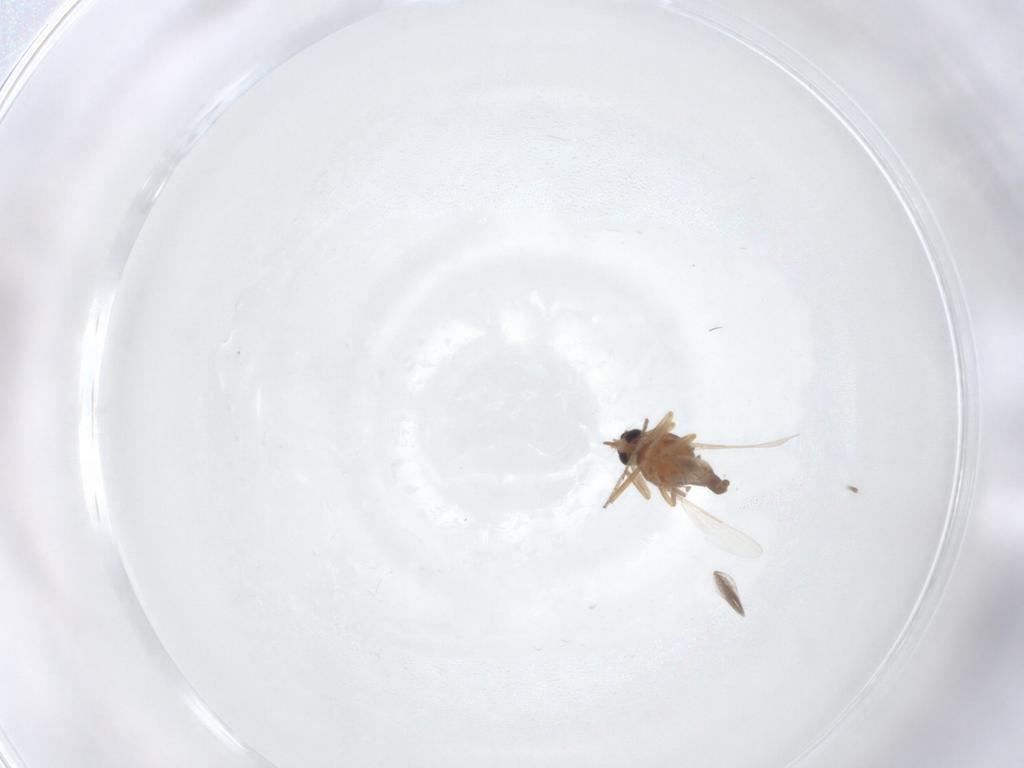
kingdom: Animalia
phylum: Arthropoda
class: Insecta
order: Diptera
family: Ceratopogonidae
